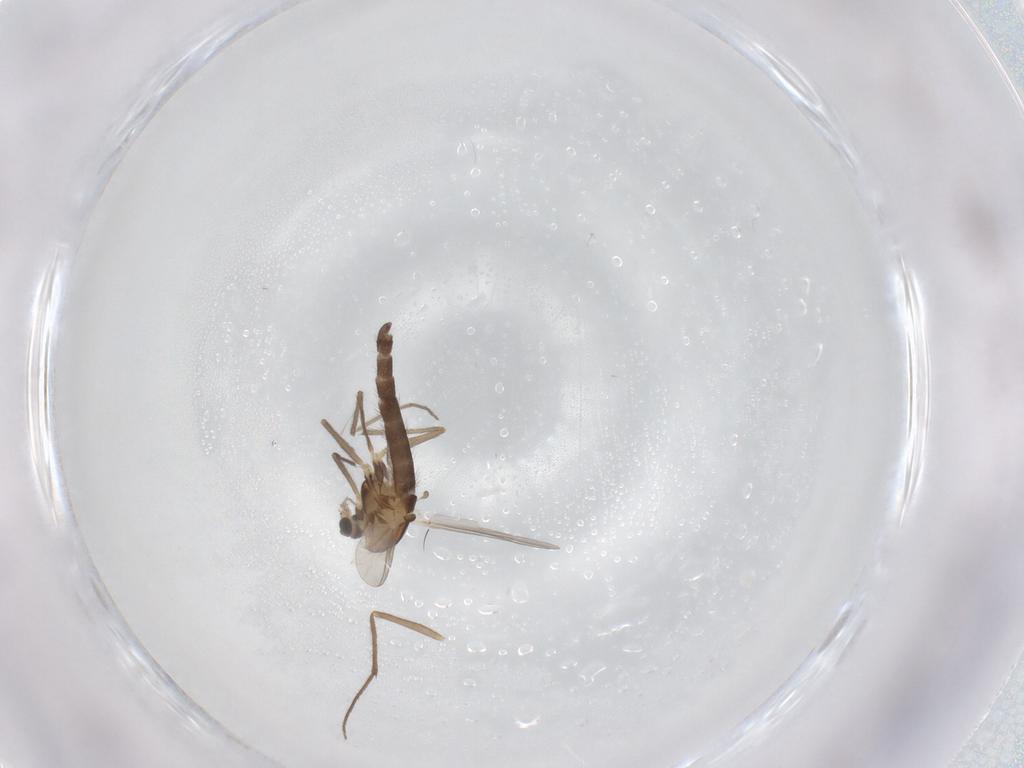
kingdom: Animalia
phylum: Arthropoda
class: Insecta
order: Diptera
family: Chironomidae
